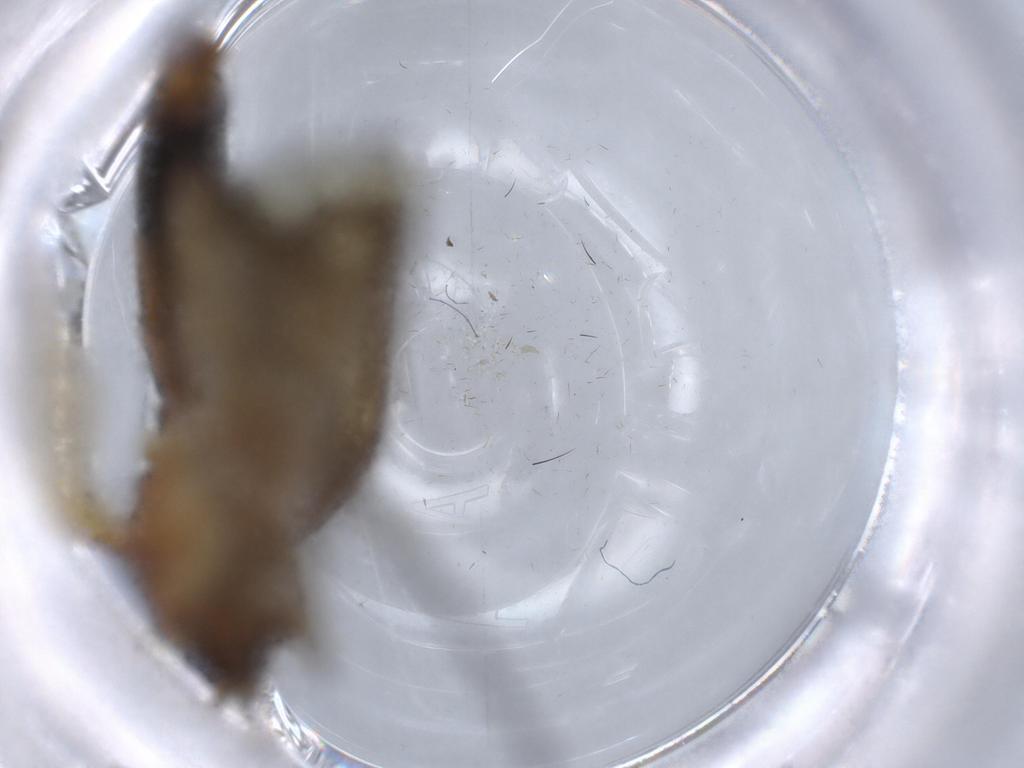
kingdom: Animalia
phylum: Arthropoda
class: Insecta
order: Diptera
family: Mycetophilidae
